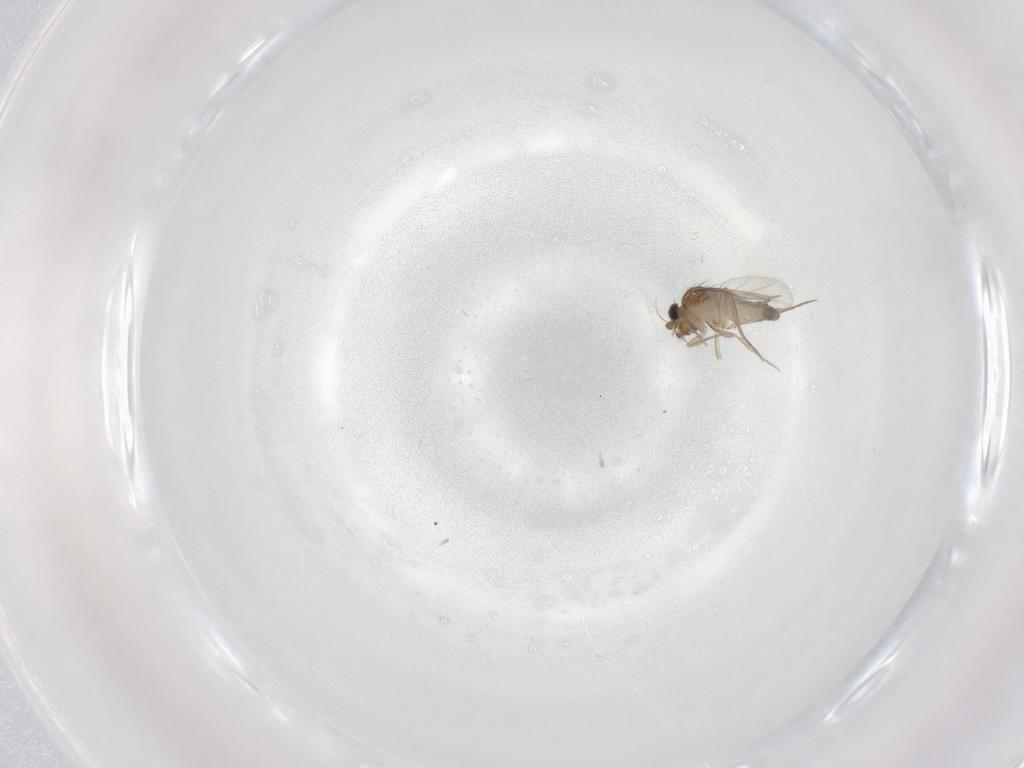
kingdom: Animalia
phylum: Arthropoda
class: Insecta
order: Diptera
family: Phoridae
